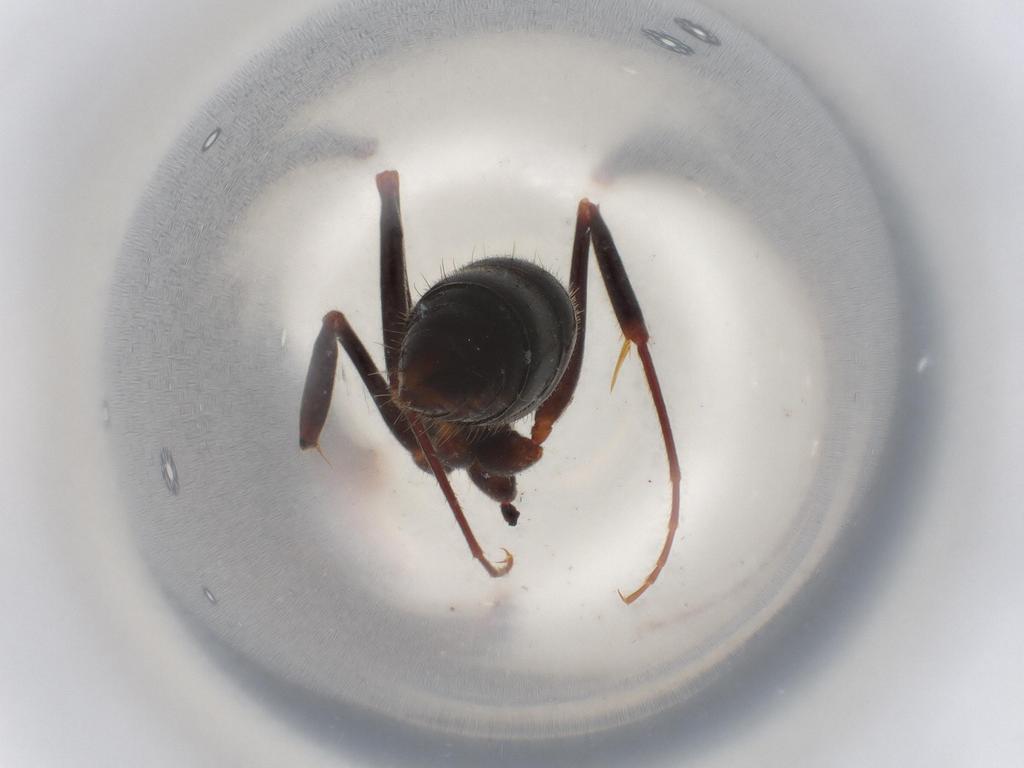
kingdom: Animalia
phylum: Arthropoda
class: Insecta
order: Hymenoptera
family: Formicidae
